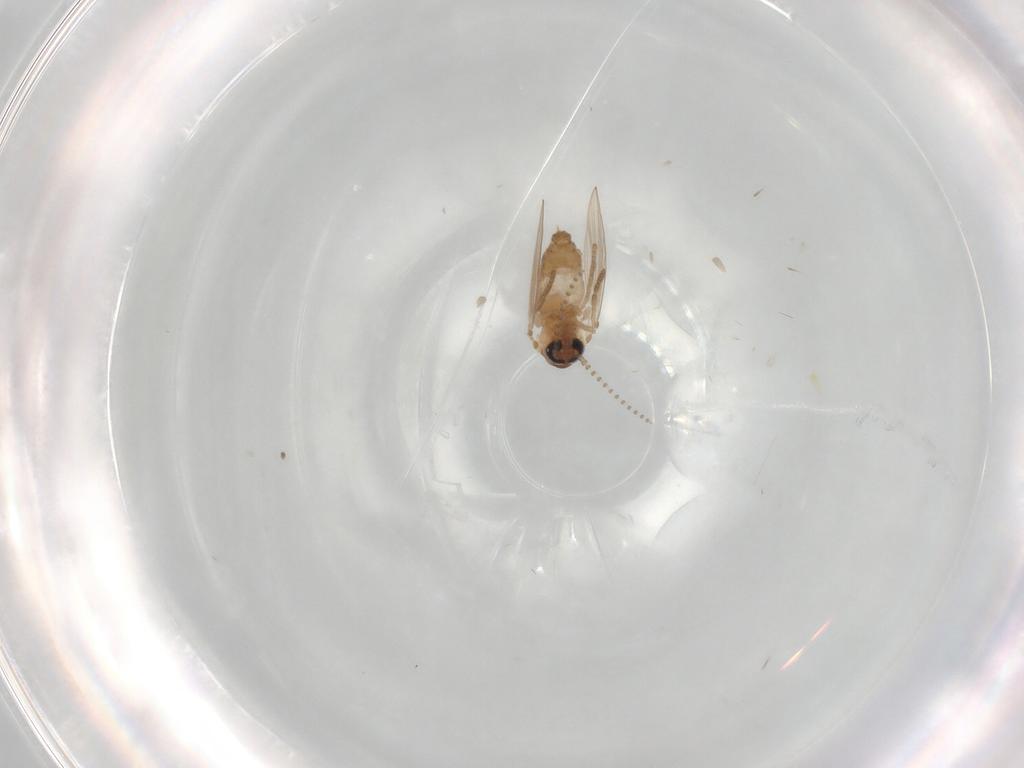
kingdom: Animalia
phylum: Arthropoda
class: Insecta
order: Diptera
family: Psychodidae
